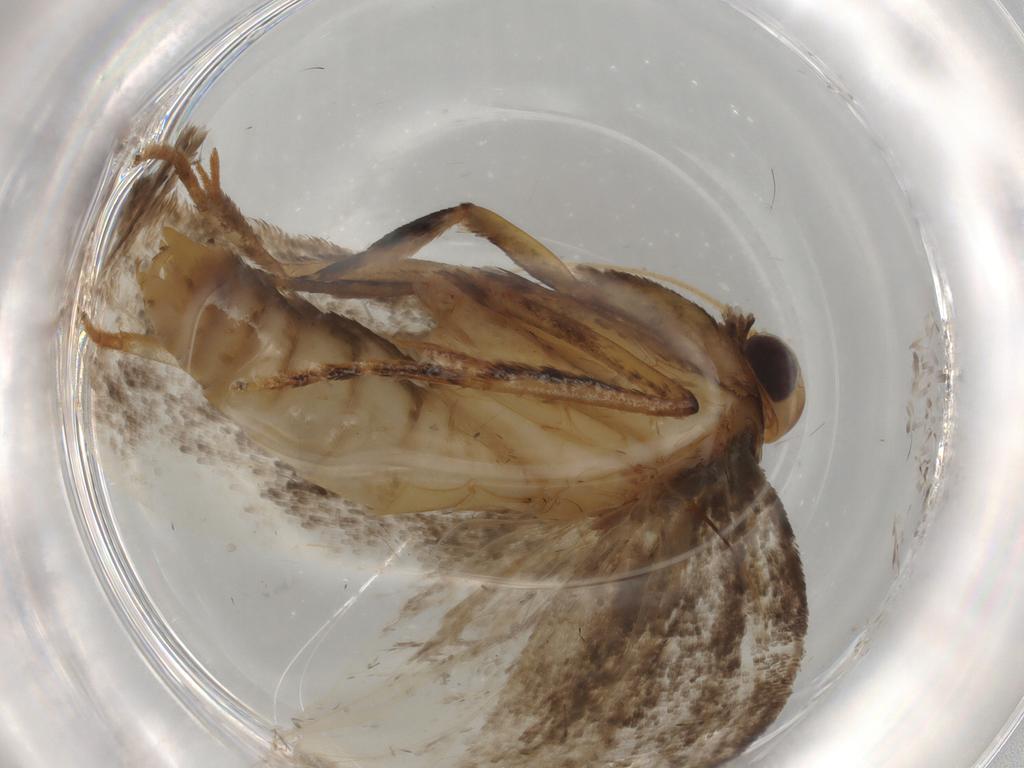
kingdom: Animalia
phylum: Arthropoda
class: Insecta
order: Lepidoptera
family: Oecophoridae
